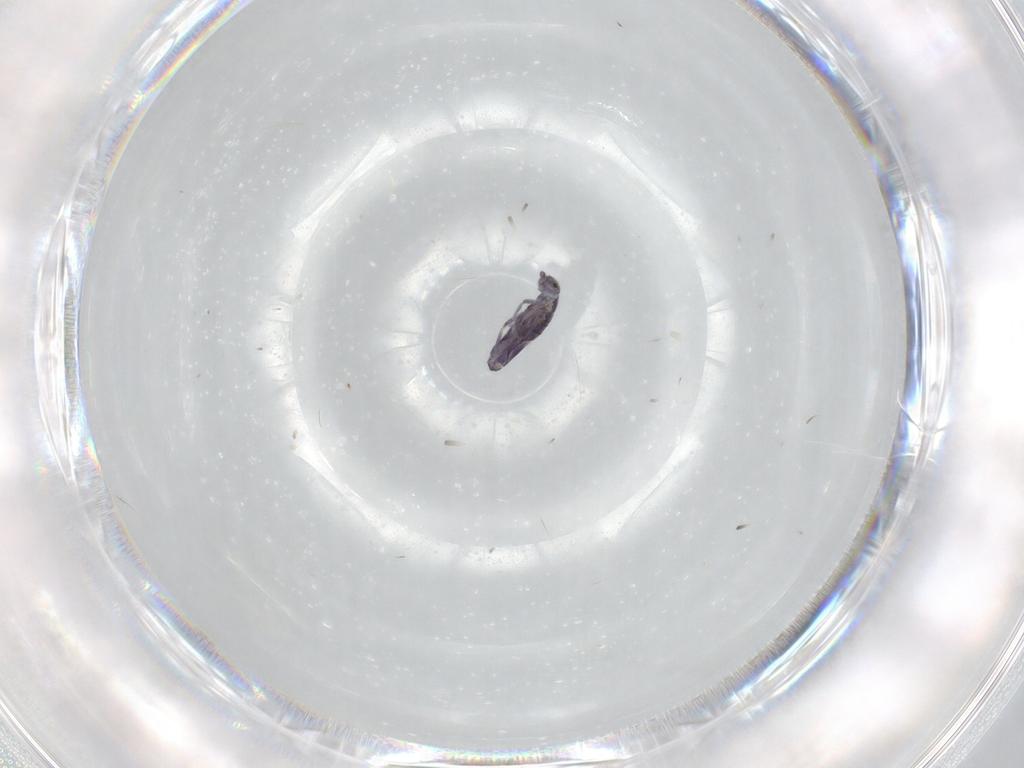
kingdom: Animalia
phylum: Arthropoda
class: Collembola
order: Entomobryomorpha
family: Entomobryidae
